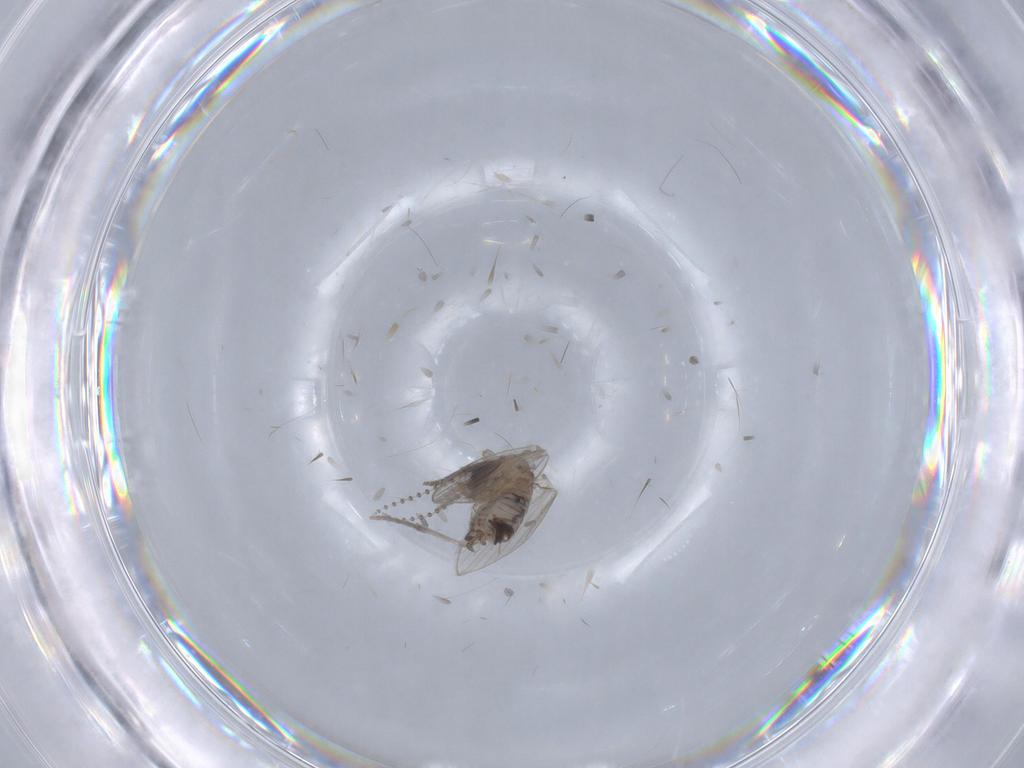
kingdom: Animalia
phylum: Arthropoda
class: Insecta
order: Diptera
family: Psychodidae
